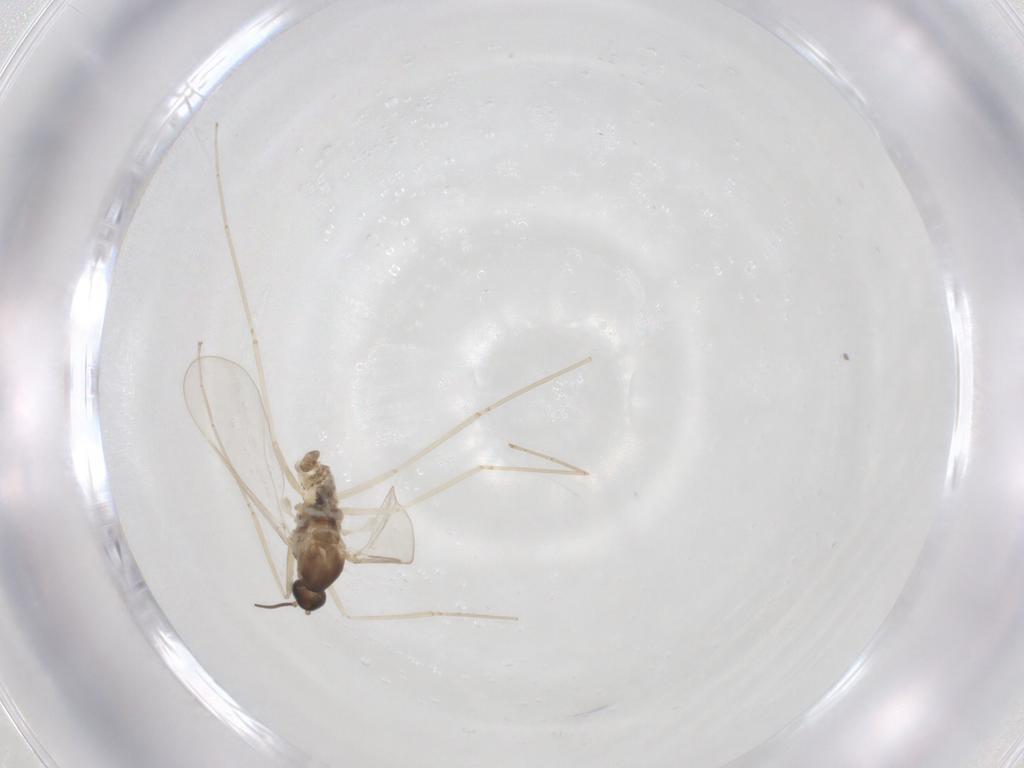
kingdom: Animalia
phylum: Arthropoda
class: Insecta
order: Diptera
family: Cecidomyiidae
